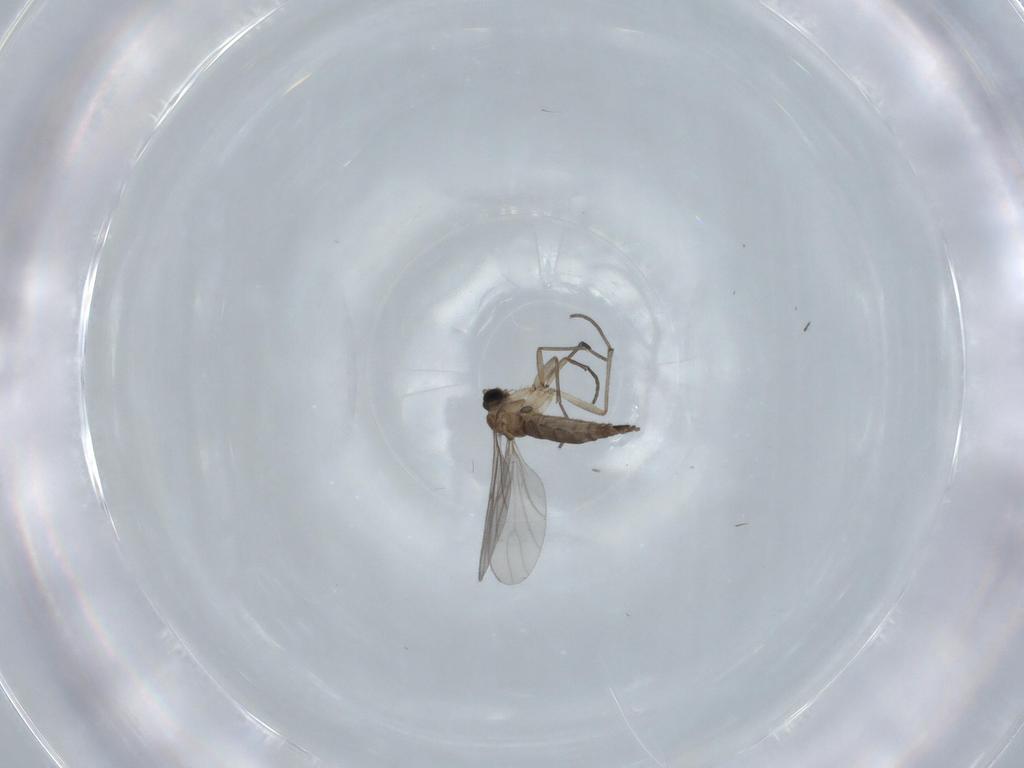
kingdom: Animalia
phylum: Arthropoda
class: Insecta
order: Diptera
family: Sciaridae
